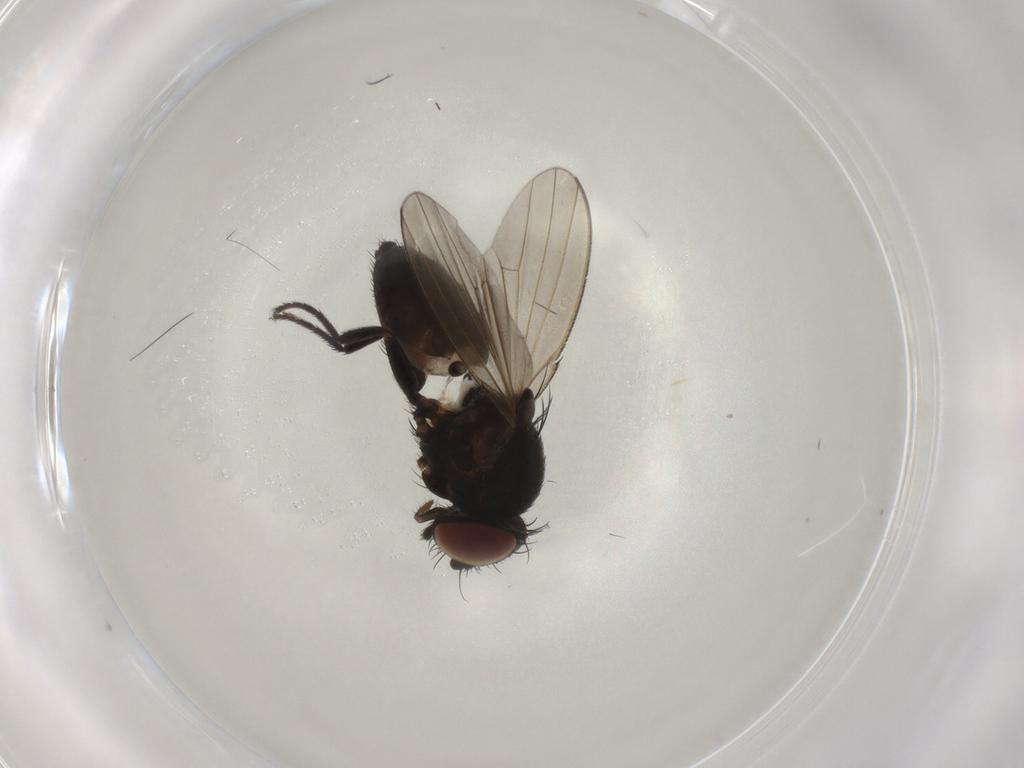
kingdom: Animalia
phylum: Arthropoda
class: Insecta
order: Diptera
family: Milichiidae
